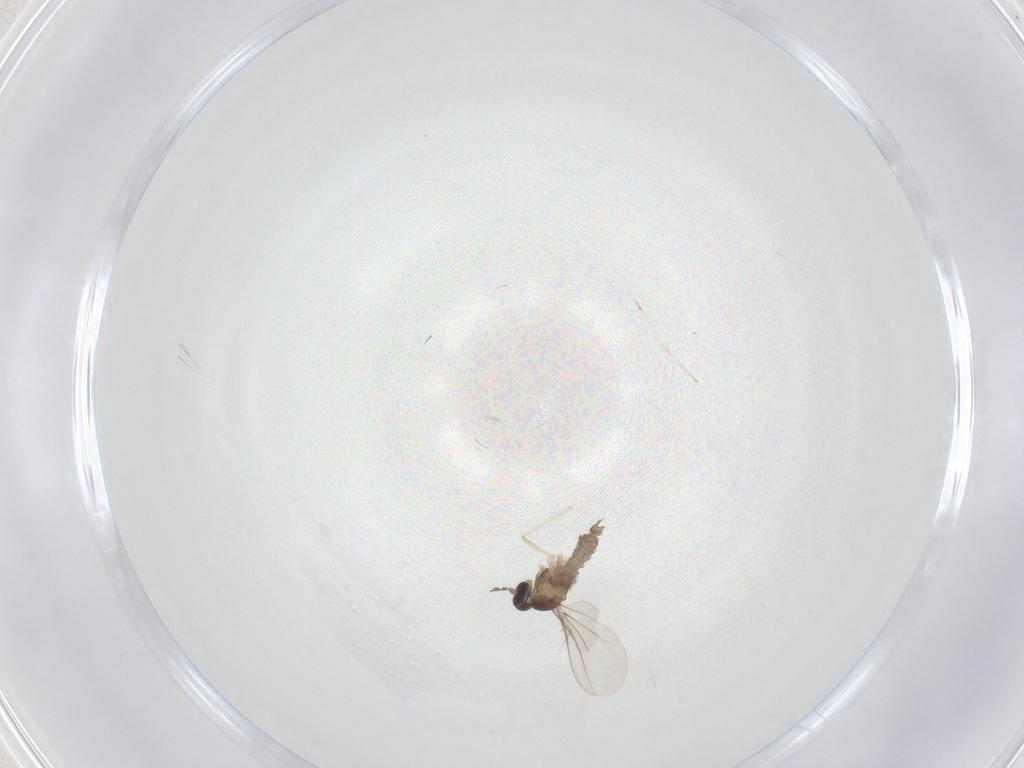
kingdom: Animalia
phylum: Arthropoda
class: Insecta
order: Diptera
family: Cecidomyiidae
